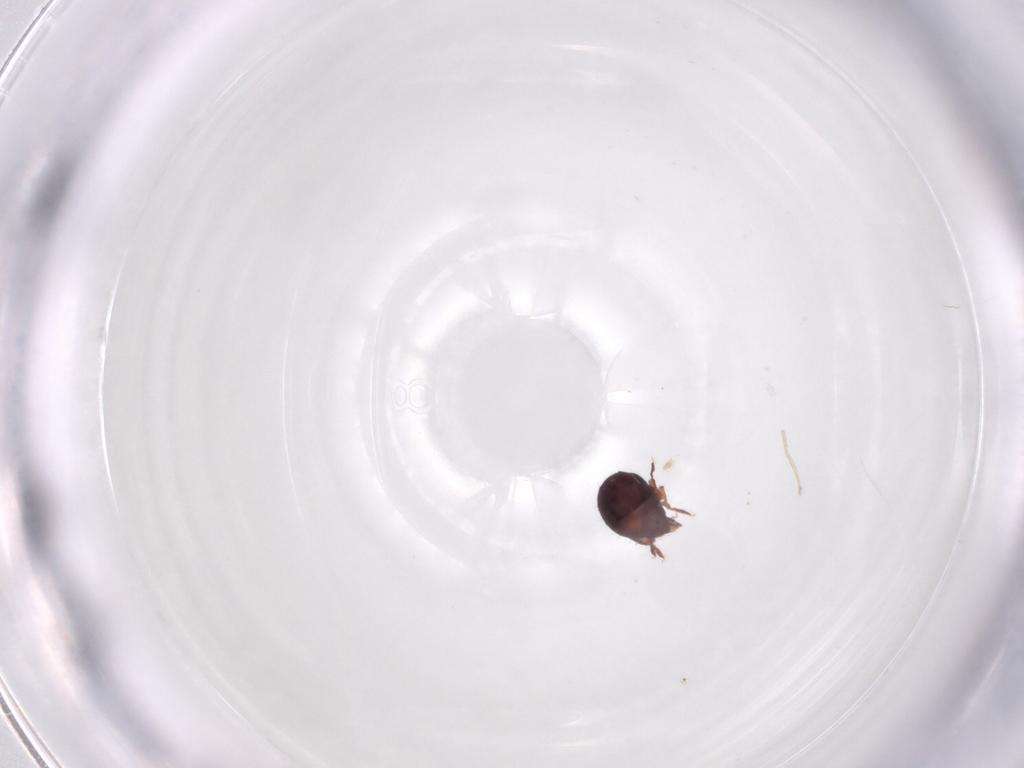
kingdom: Animalia
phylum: Arthropoda
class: Arachnida
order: Sarcoptiformes
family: Humerobatidae
